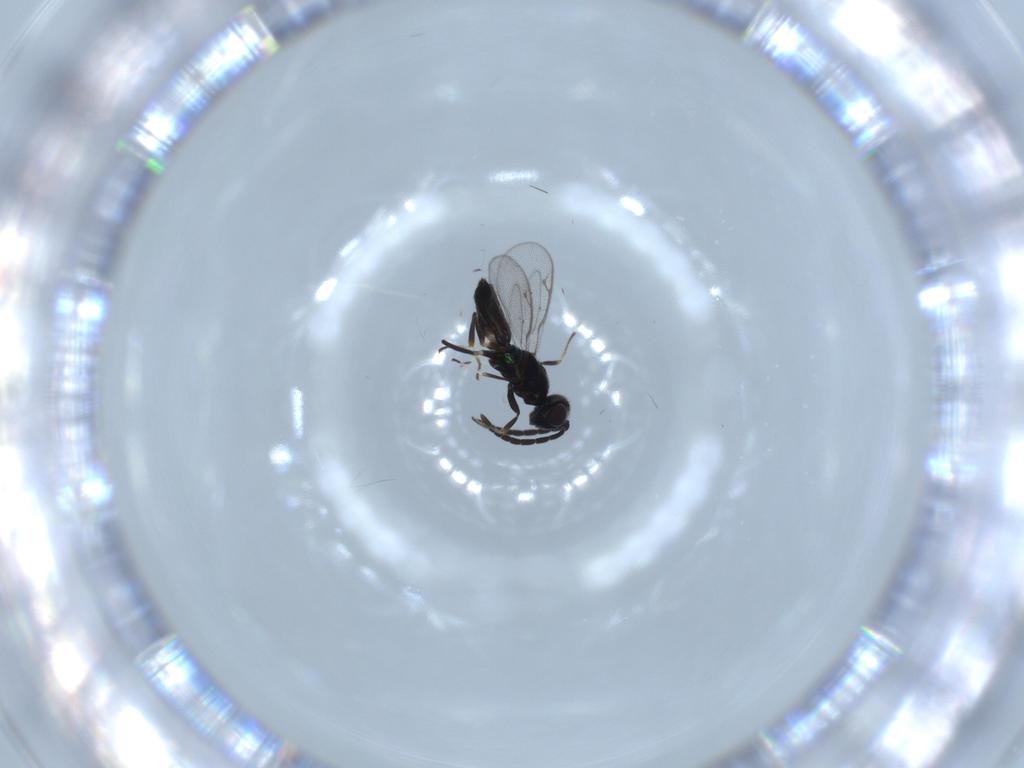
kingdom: Animalia
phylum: Arthropoda
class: Insecta
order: Hymenoptera
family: Eupelmidae
